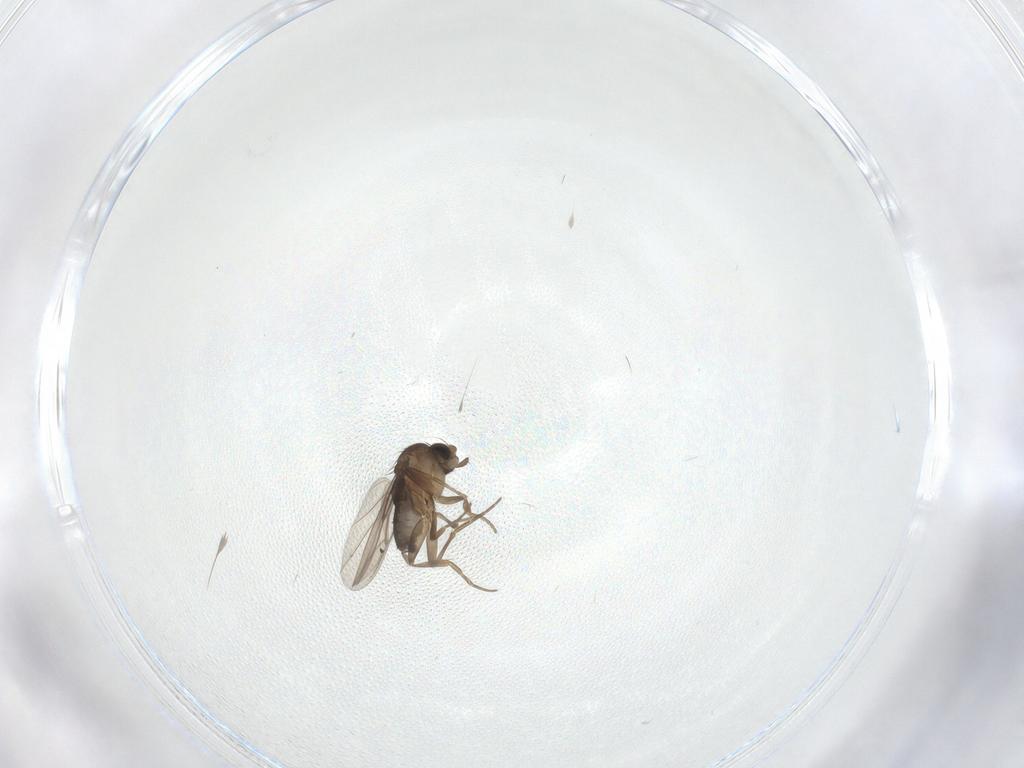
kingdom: Animalia
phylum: Arthropoda
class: Insecta
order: Diptera
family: Phoridae
